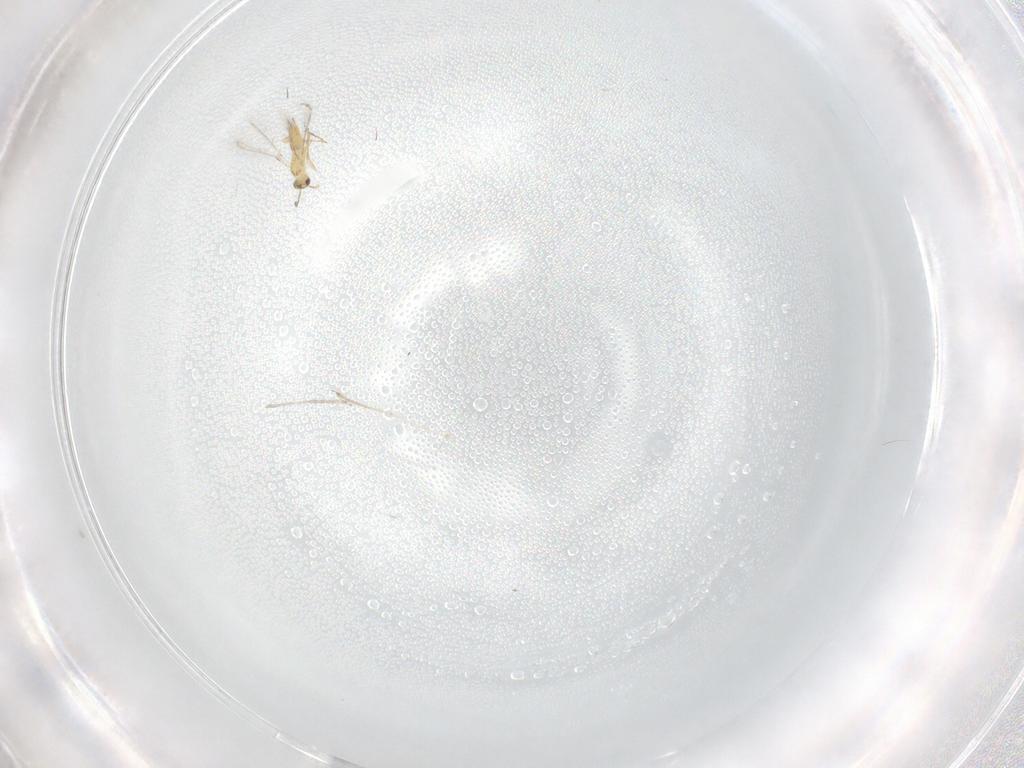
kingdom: Animalia
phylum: Arthropoda
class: Insecta
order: Hymenoptera
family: Mymaridae
